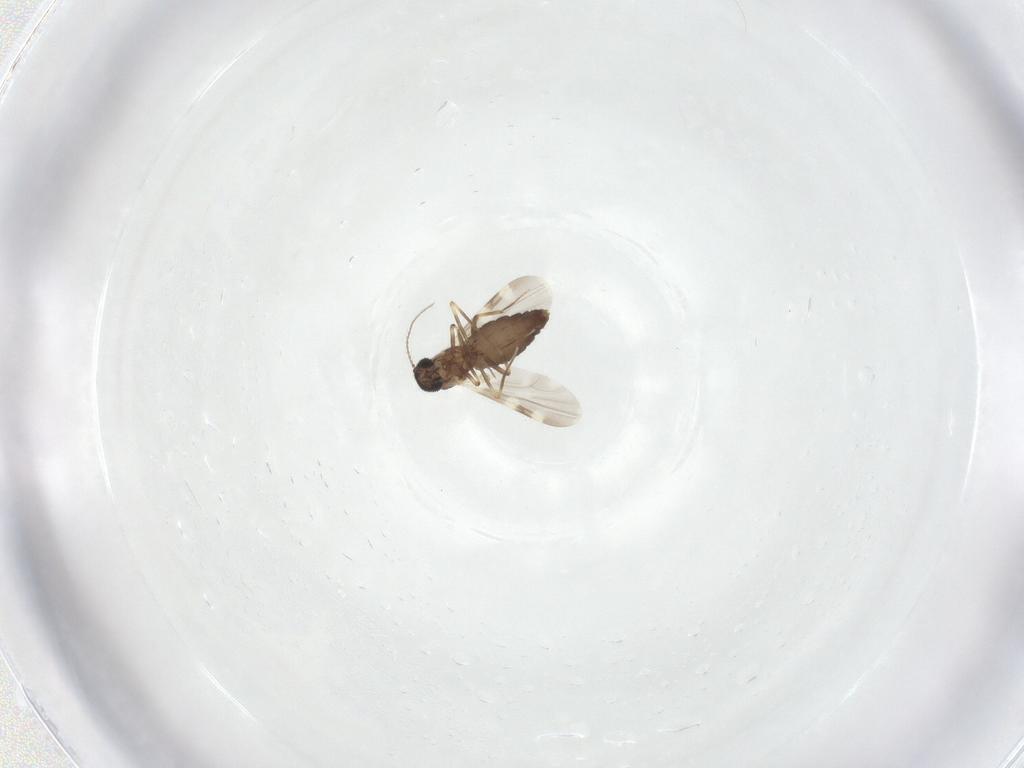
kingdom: Animalia
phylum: Arthropoda
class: Insecta
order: Diptera
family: Ceratopogonidae
